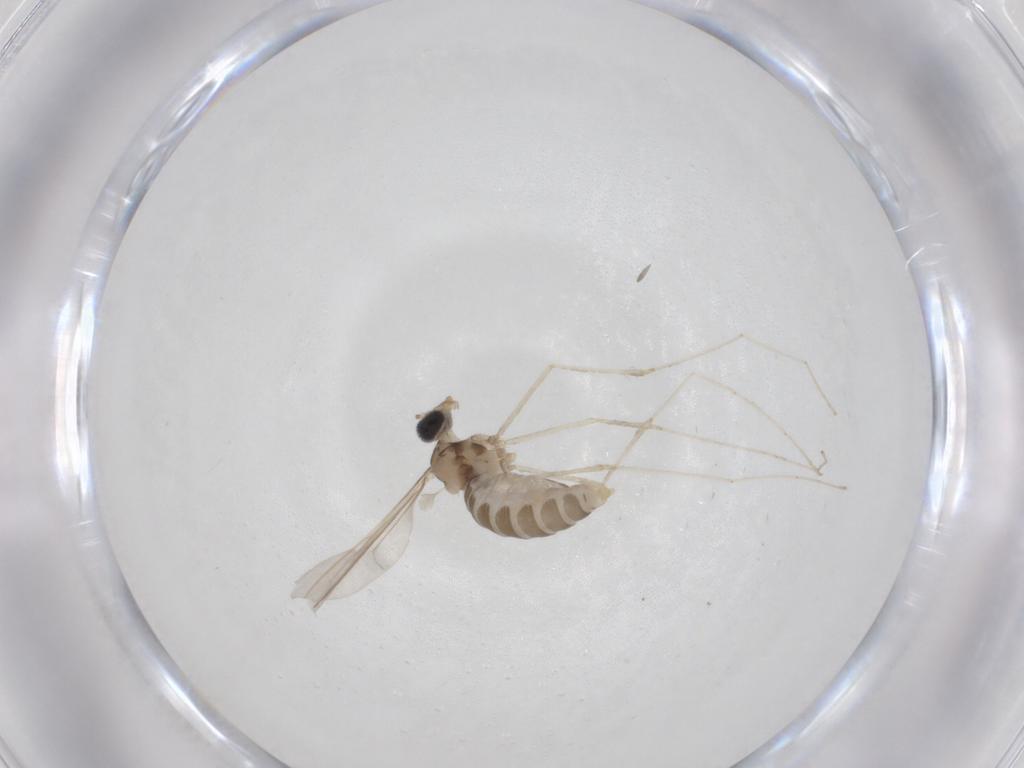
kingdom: Animalia
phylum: Arthropoda
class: Insecta
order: Diptera
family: Cecidomyiidae
